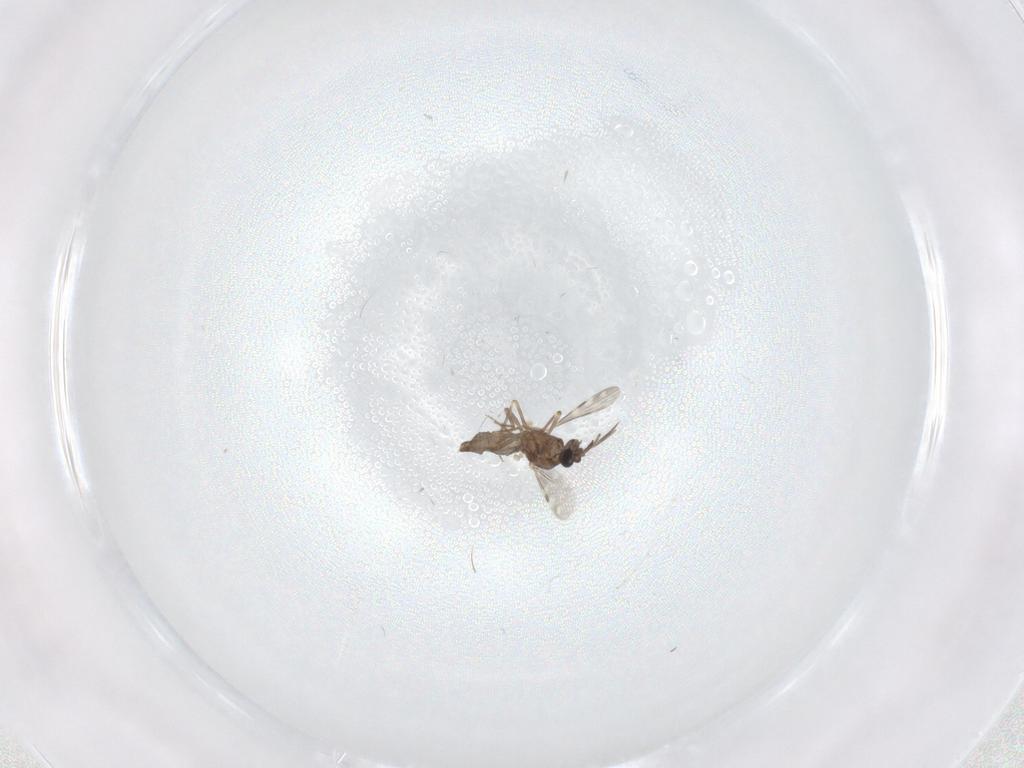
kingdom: Animalia
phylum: Arthropoda
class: Insecta
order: Diptera
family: Cecidomyiidae
